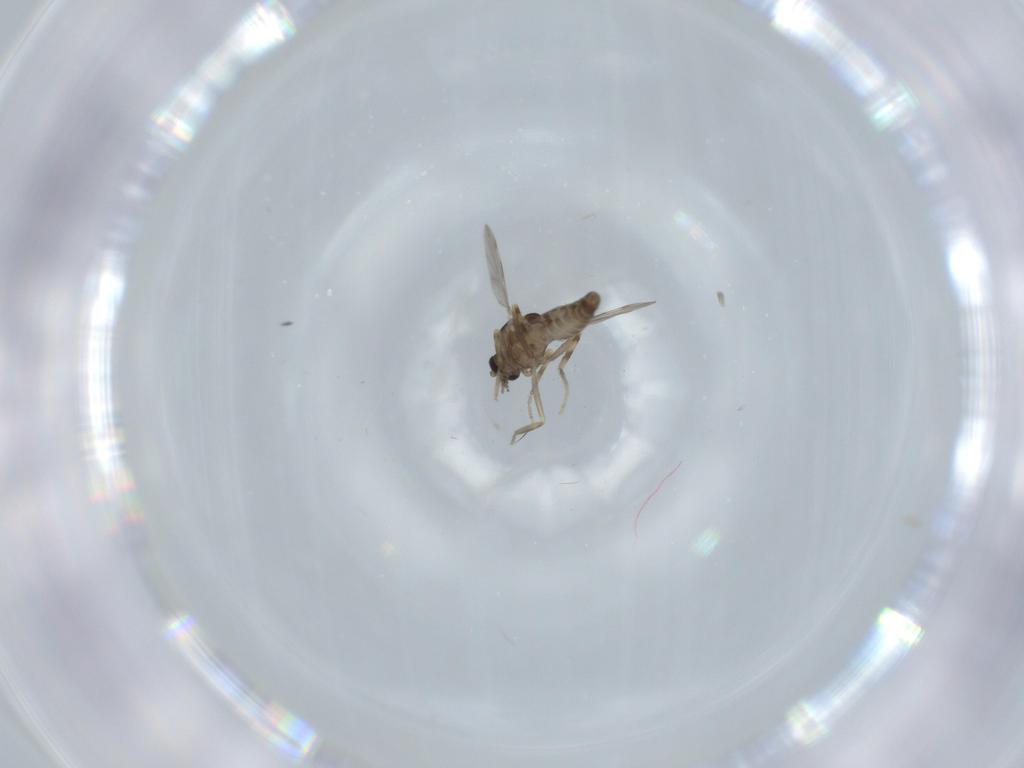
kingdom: Animalia
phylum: Arthropoda
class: Insecta
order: Diptera
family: Ceratopogonidae
